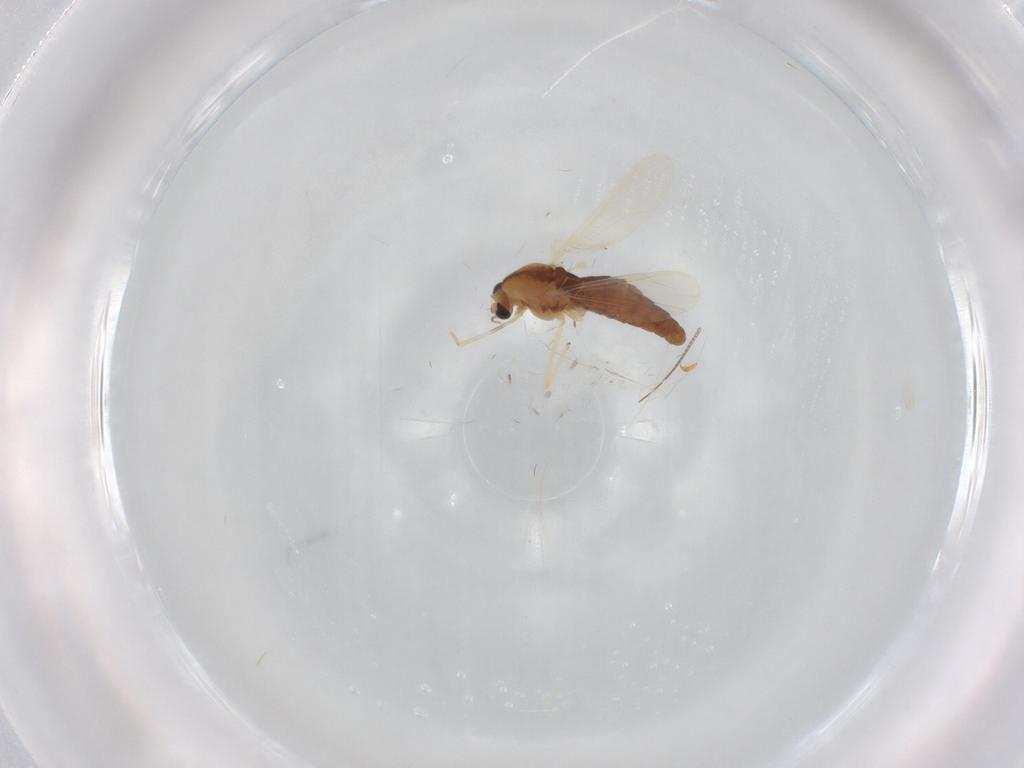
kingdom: Animalia
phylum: Arthropoda
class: Insecta
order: Diptera
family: Chironomidae
